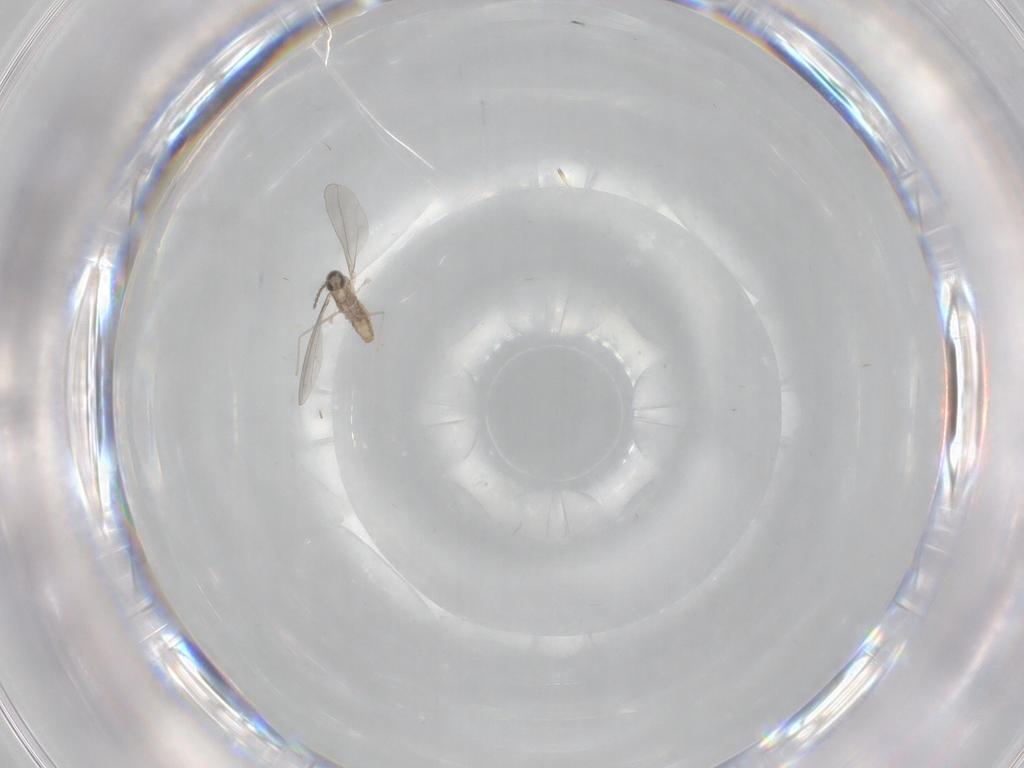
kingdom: Animalia
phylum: Arthropoda
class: Insecta
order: Diptera
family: Cecidomyiidae
